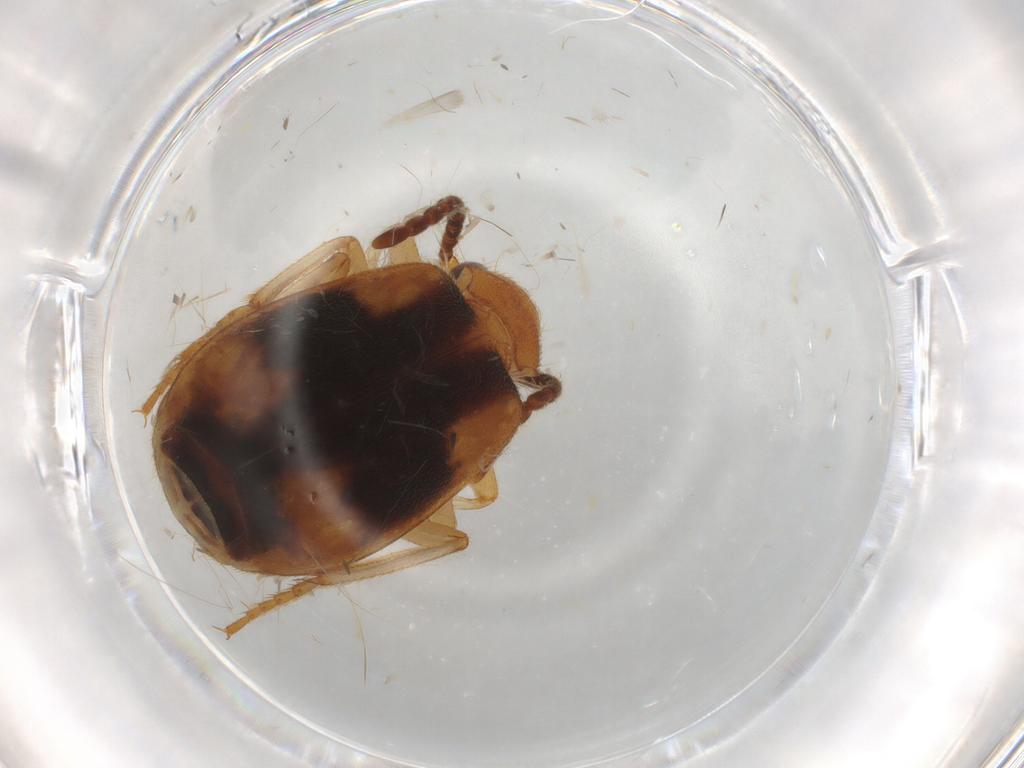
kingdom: Animalia
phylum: Arthropoda
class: Insecta
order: Coleoptera
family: Carabidae
